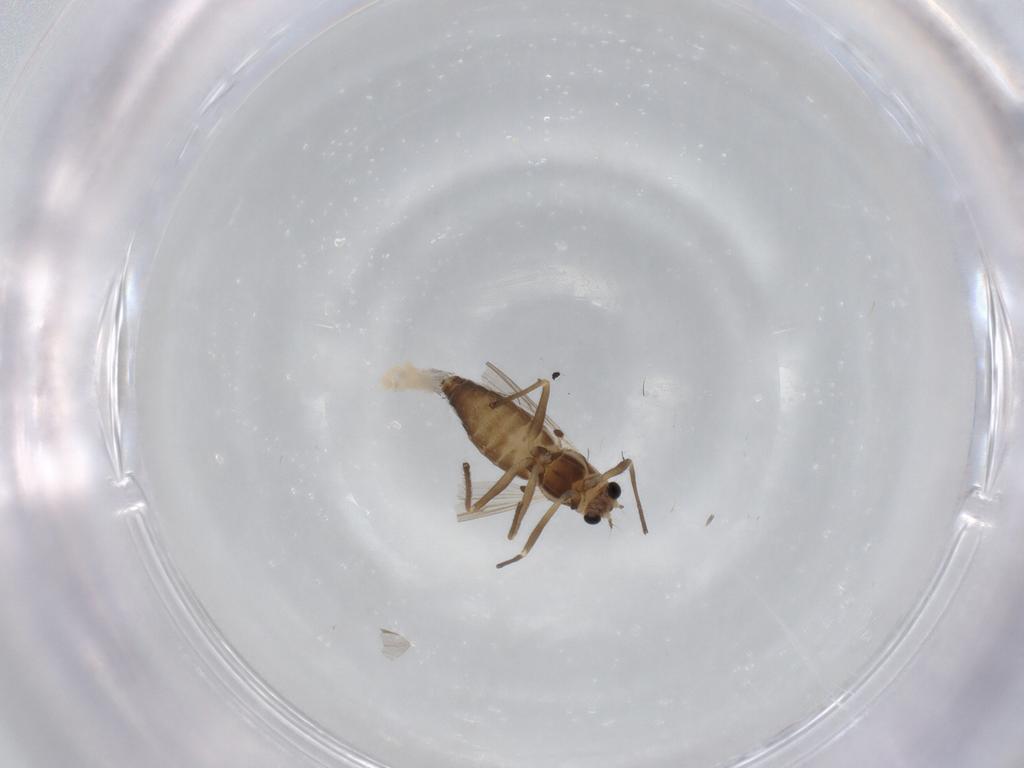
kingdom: Animalia
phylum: Arthropoda
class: Insecta
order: Diptera
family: Chironomidae
